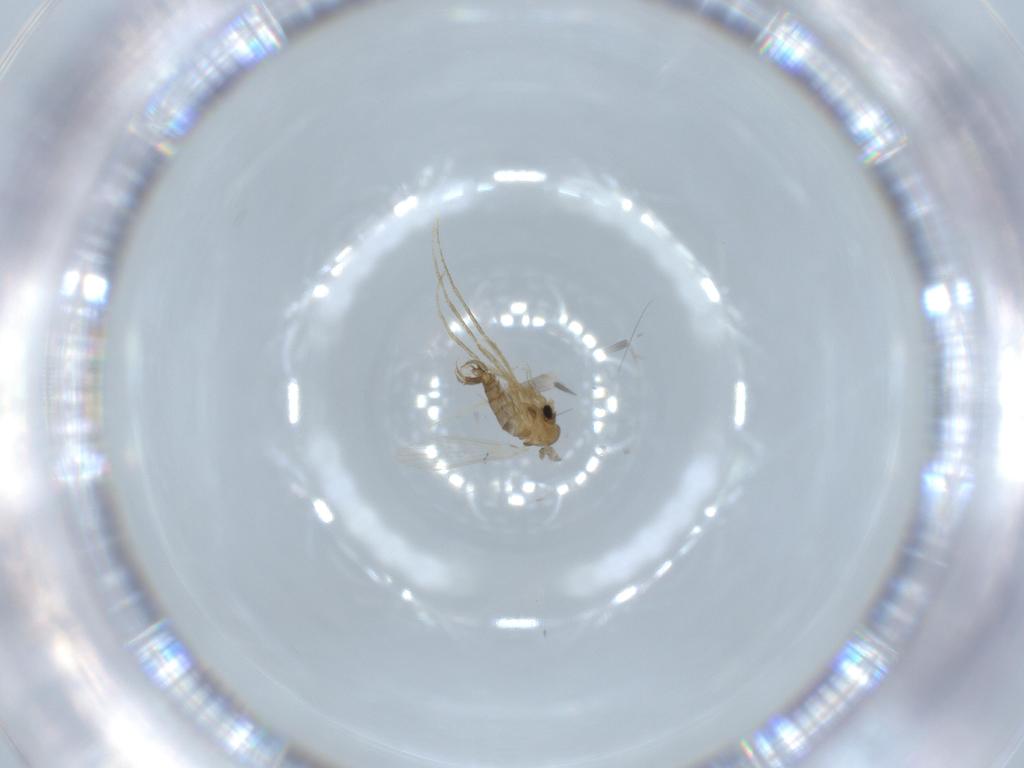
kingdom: Animalia
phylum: Arthropoda
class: Insecta
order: Diptera
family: Psychodidae
